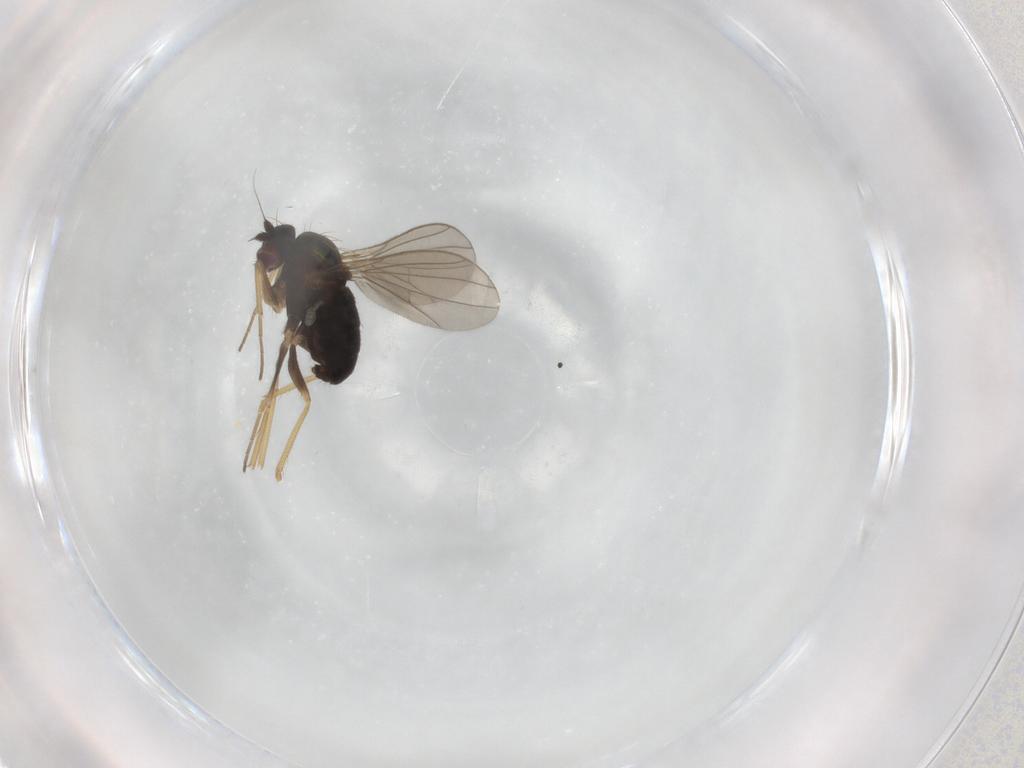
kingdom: Animalia
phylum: Arthropoda
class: Insecta
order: Diptera
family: Dolichopodidae
